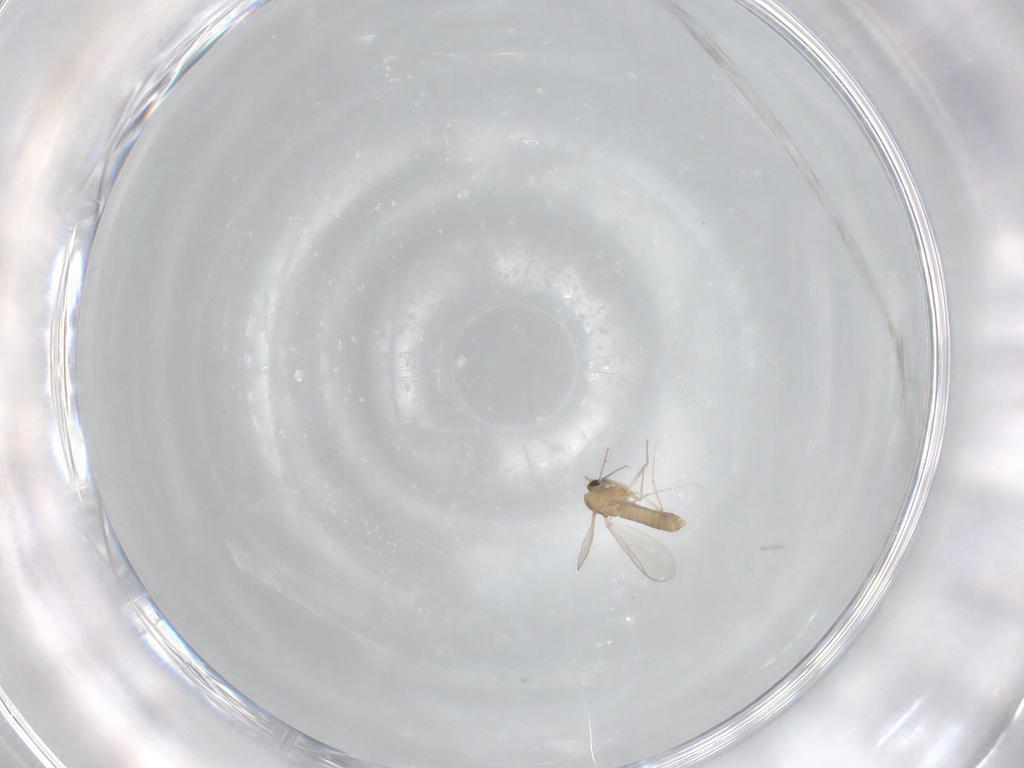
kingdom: Animalia
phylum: Arthropoda
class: Insecta
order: Diptera
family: Chironomidae
